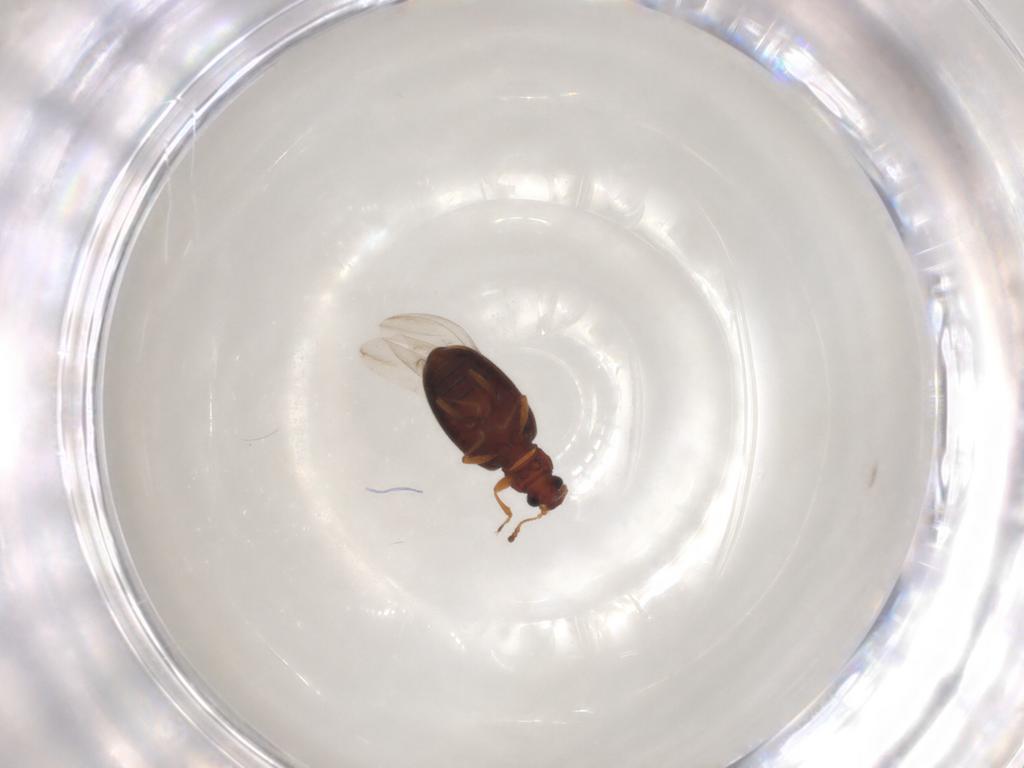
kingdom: Animalia
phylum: Arthropoda
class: Insecta
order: Coleoptera
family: Latridiidae
